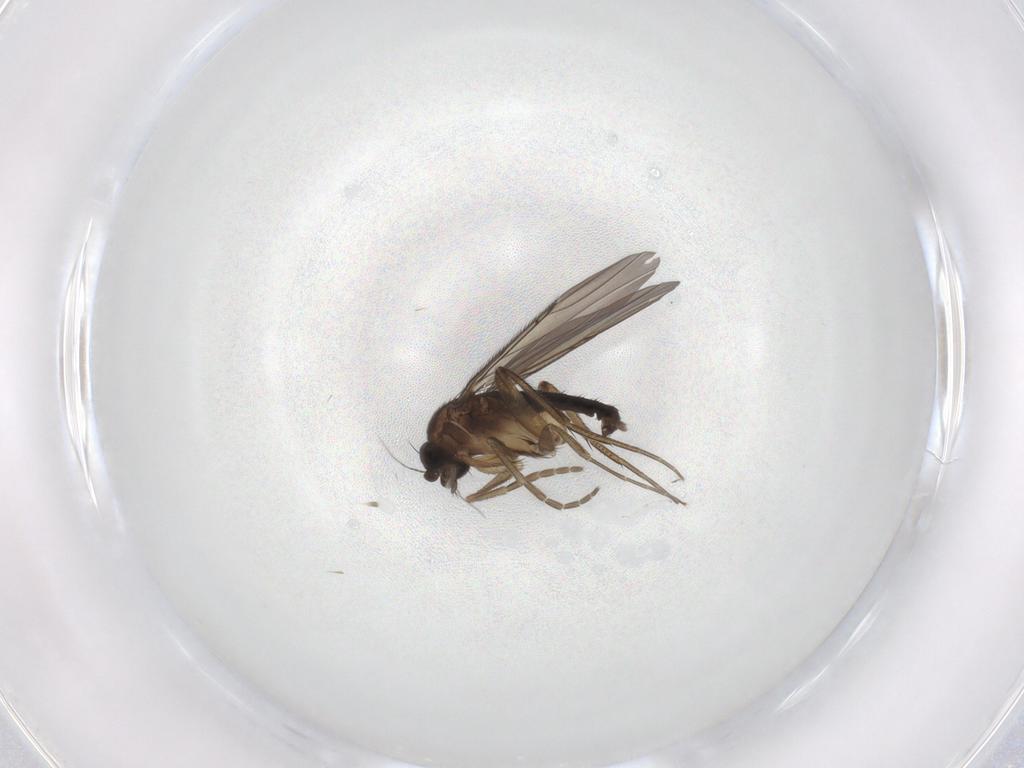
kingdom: Animalia
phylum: Arthropoda
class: Insecta
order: Diptera
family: Phoridae
